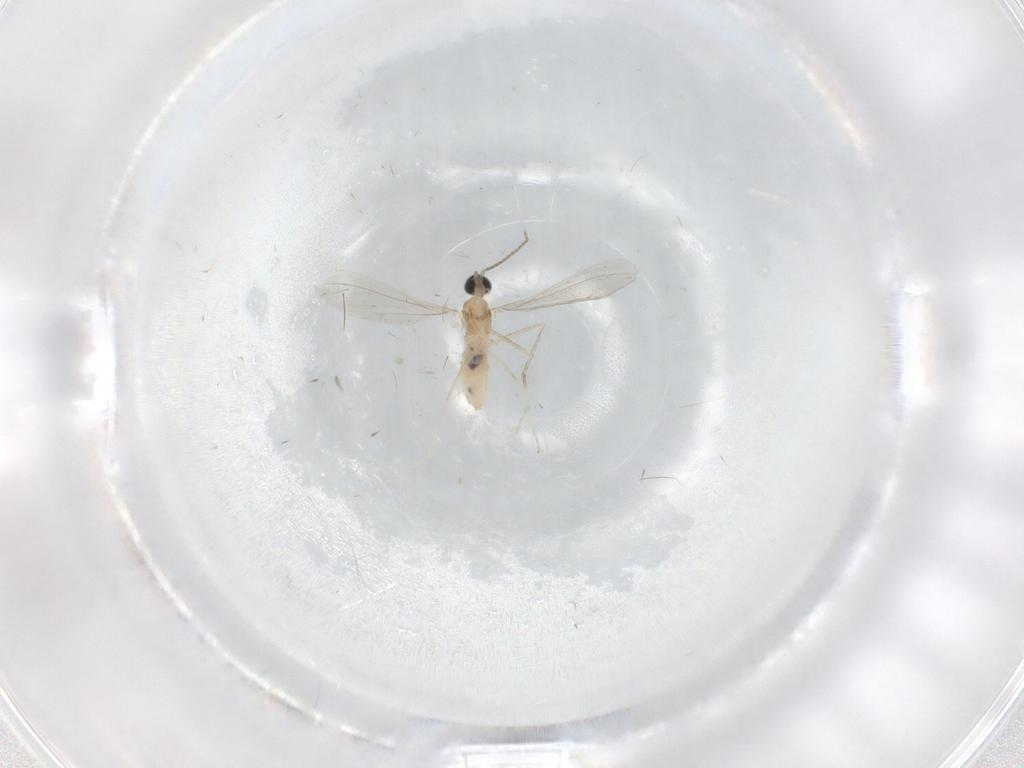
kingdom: Animalia
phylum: Arthropoda
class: Insecta
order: Diptera
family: Cecidomyiidae
